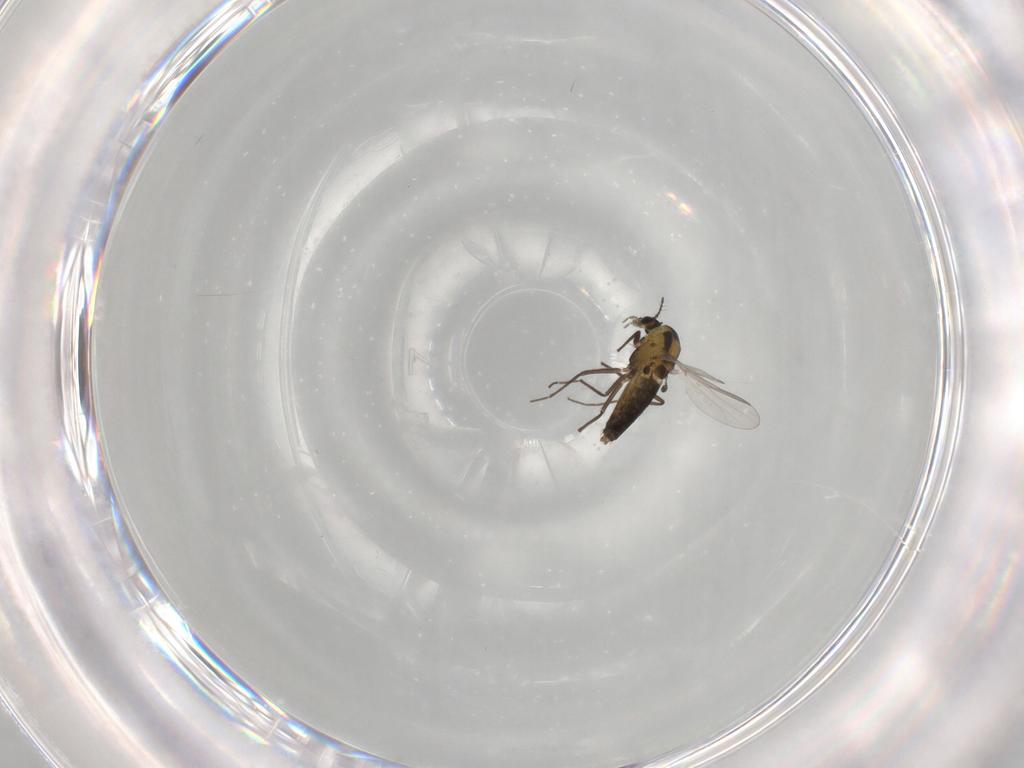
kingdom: Animalia
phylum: Arthropoda
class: Insecta
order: Diptera
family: Chironomidae
